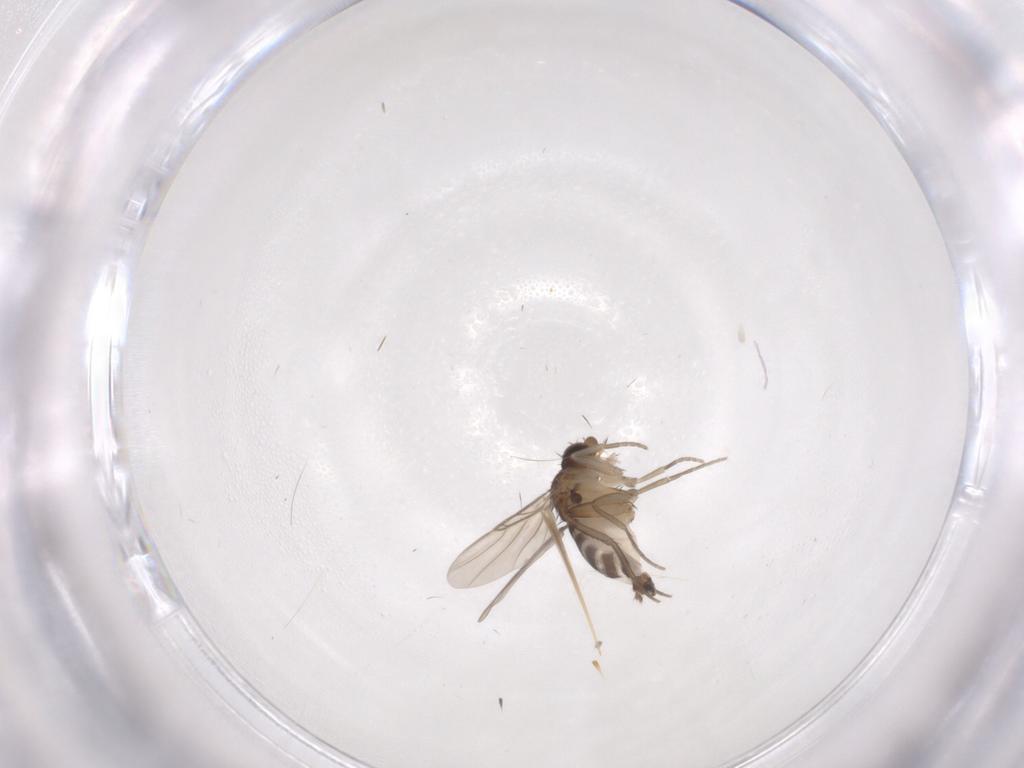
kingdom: Animalia
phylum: Arthropoda
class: Insecta
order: Diptera
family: Phoridae
